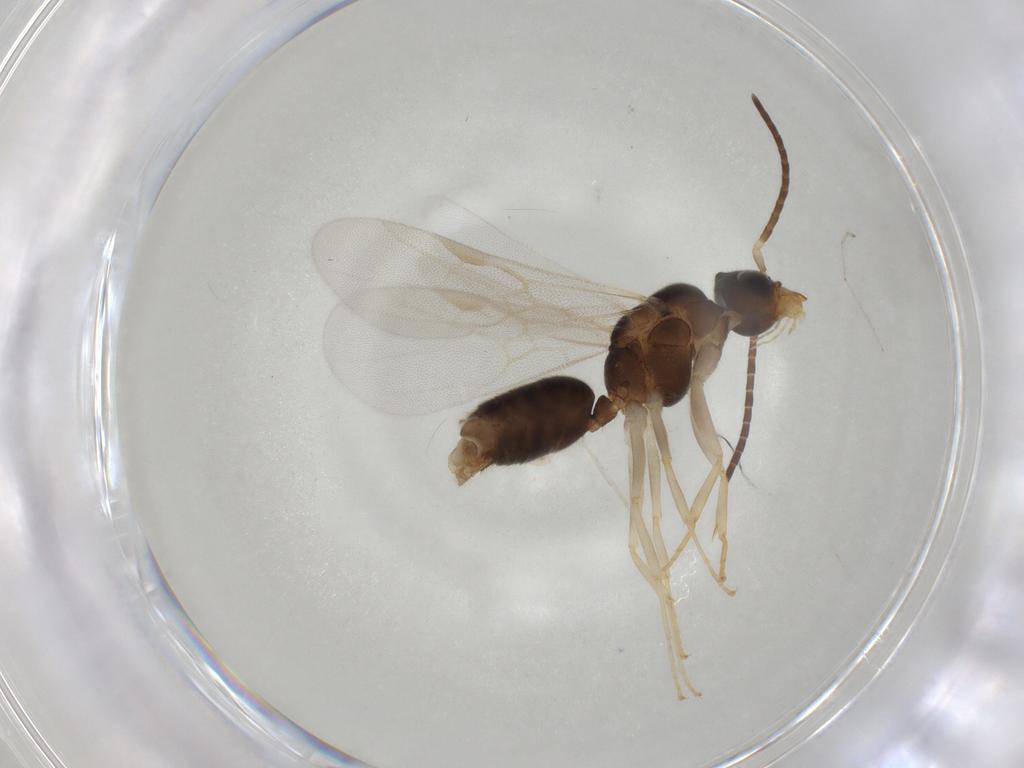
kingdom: Animalia
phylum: Arthropoda
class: Insecta
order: Hymenoptera
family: Formicidae
